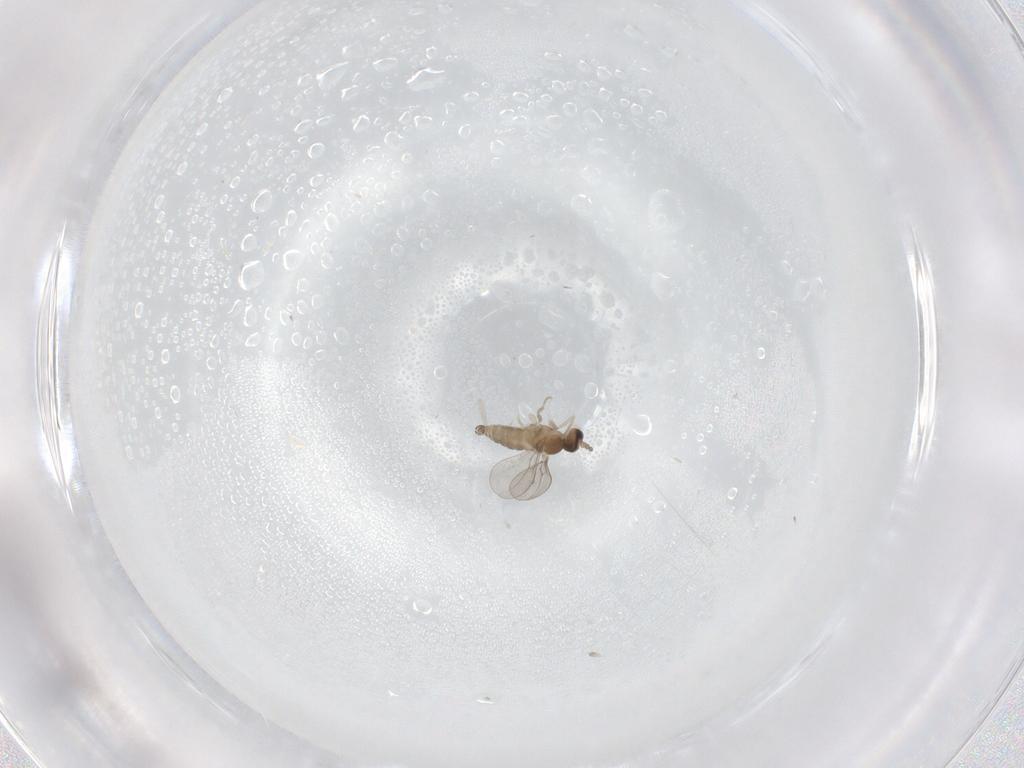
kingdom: Animalia
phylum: Arthropoda
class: Insecta
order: Diptera
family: Cecidomyiidae
